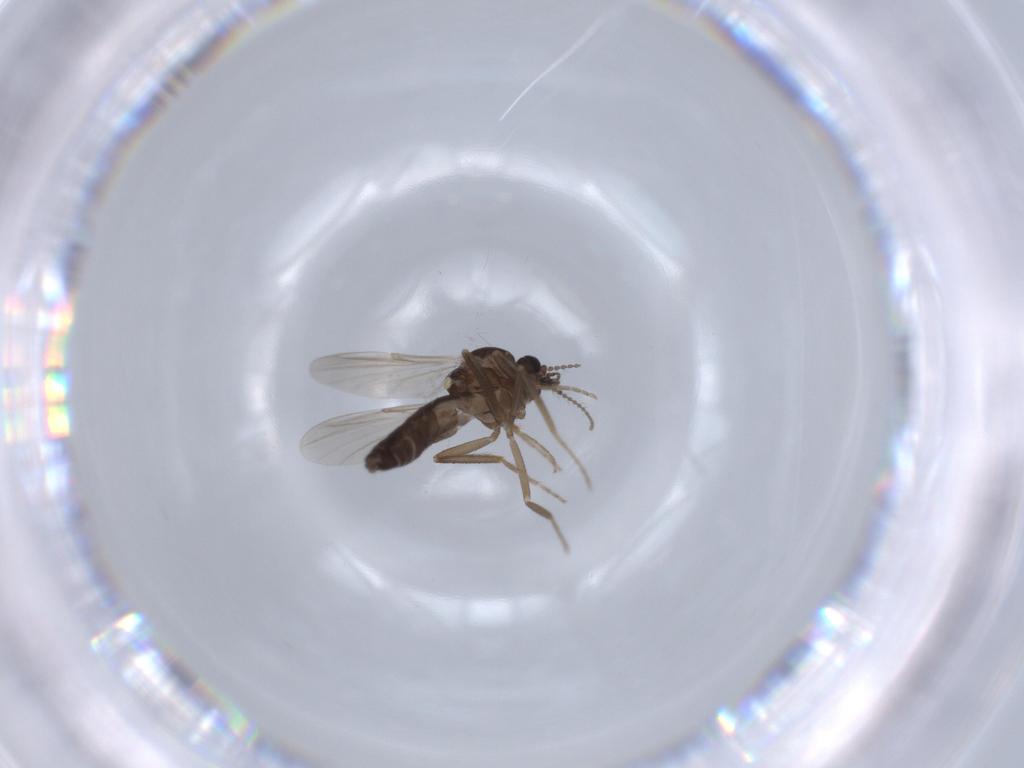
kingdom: Animalia
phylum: Arthropoda
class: Insecta
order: Diptera
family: Ceratopogonidae
